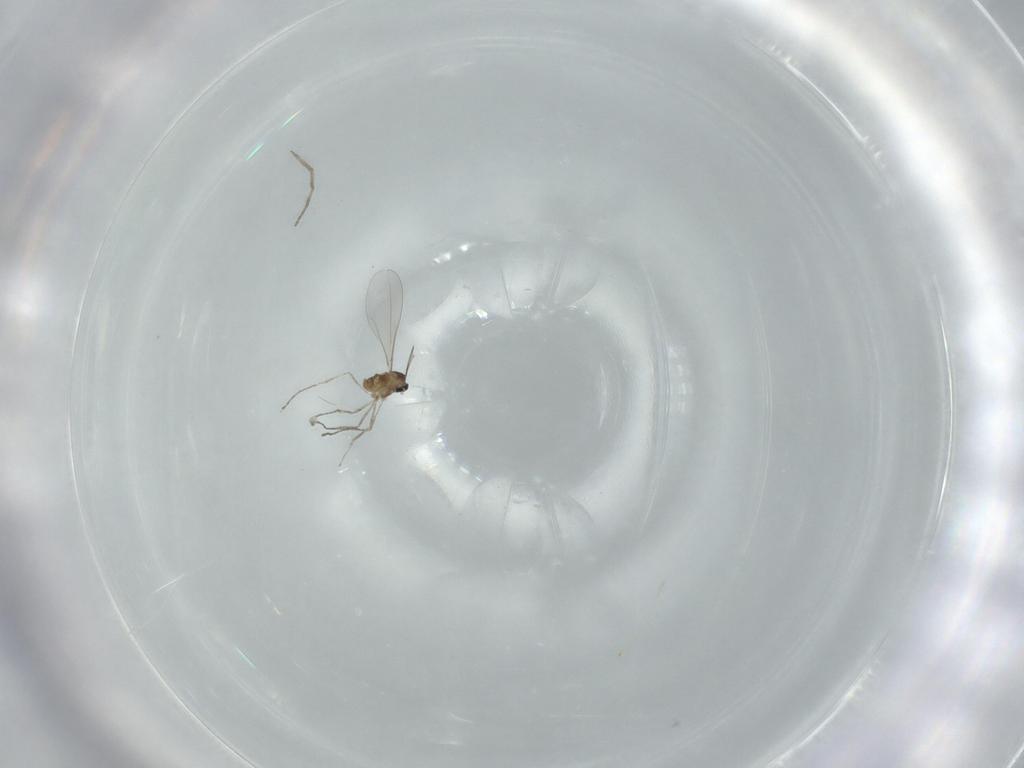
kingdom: Animalia
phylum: Arthropoda
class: Insecta
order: Diptera
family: Cecidomyiidae
